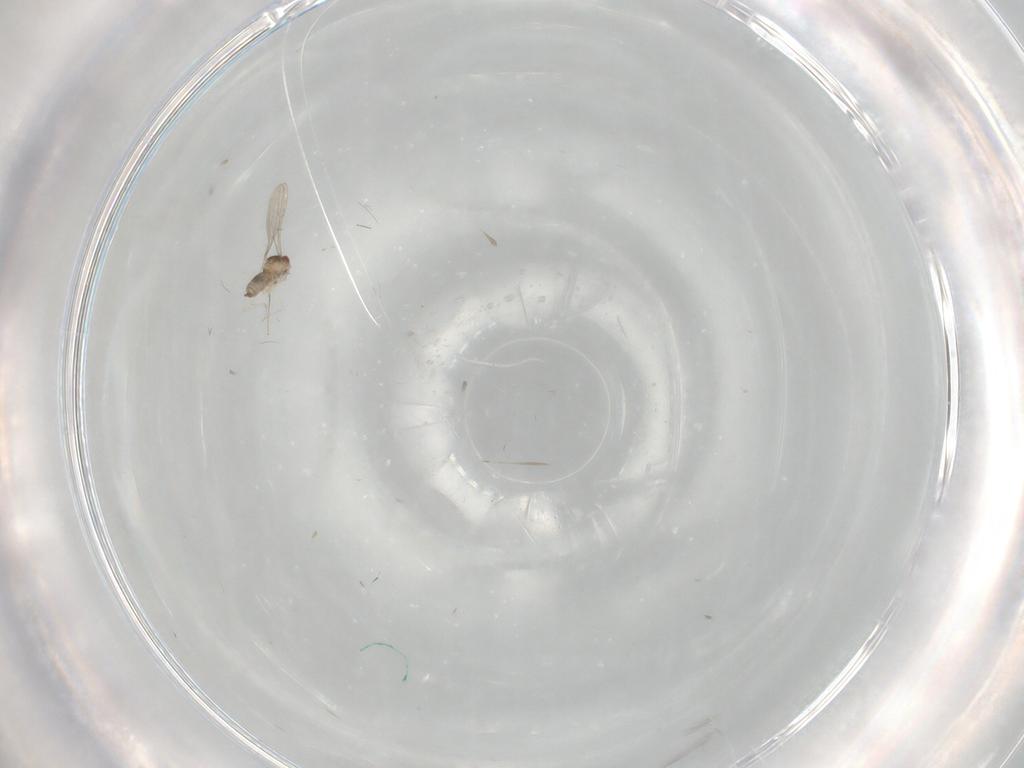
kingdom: Animalia
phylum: Arthropoda
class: Insecta
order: Diptera
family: Cecidomyiidae
